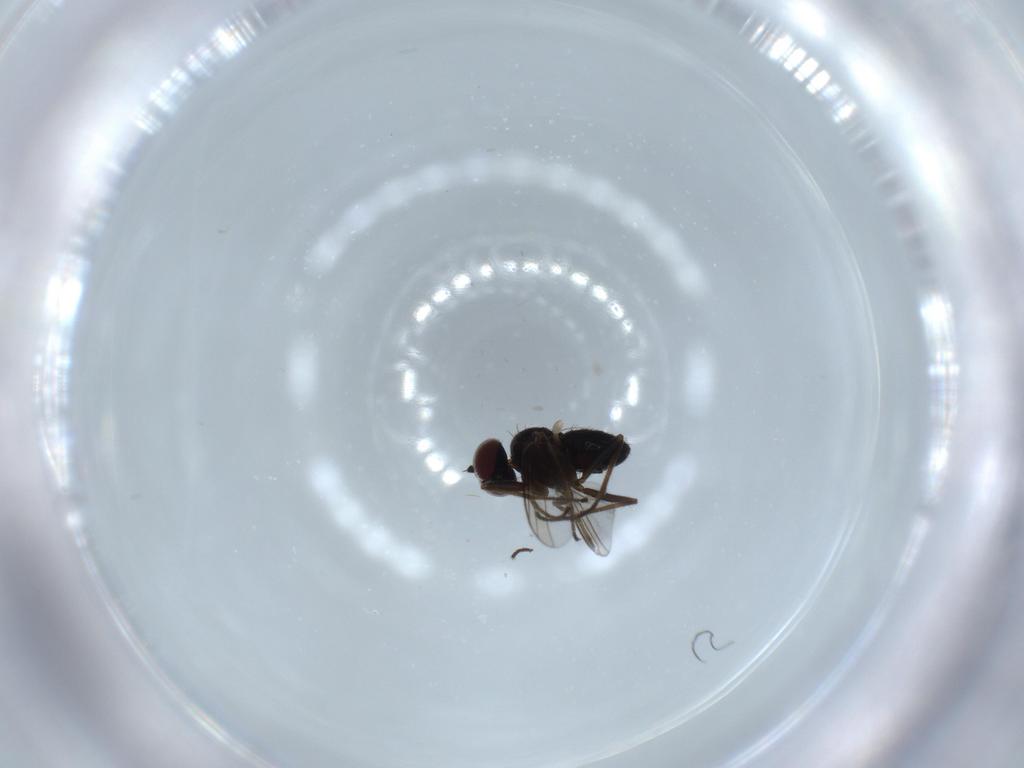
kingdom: Animalia
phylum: Arthropoda
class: Insecta
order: Diptera
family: Dolichopodidae
